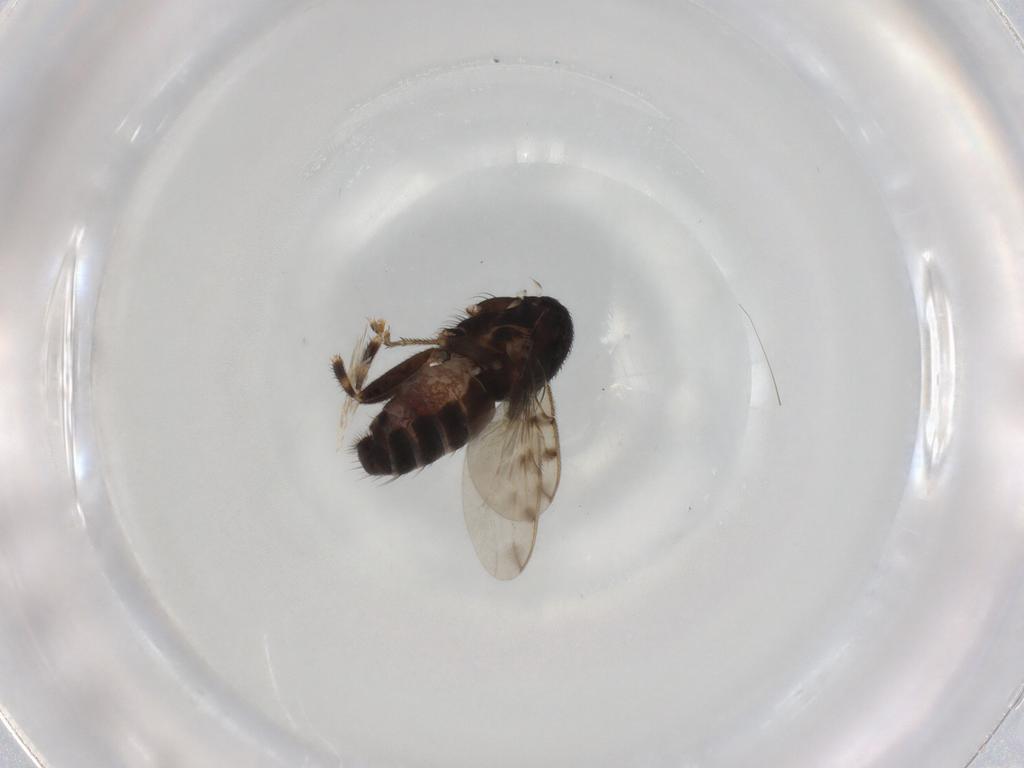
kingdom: Animalia
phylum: Arthropoda
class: Insecta
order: Diptera
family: Sphaeroceridae
